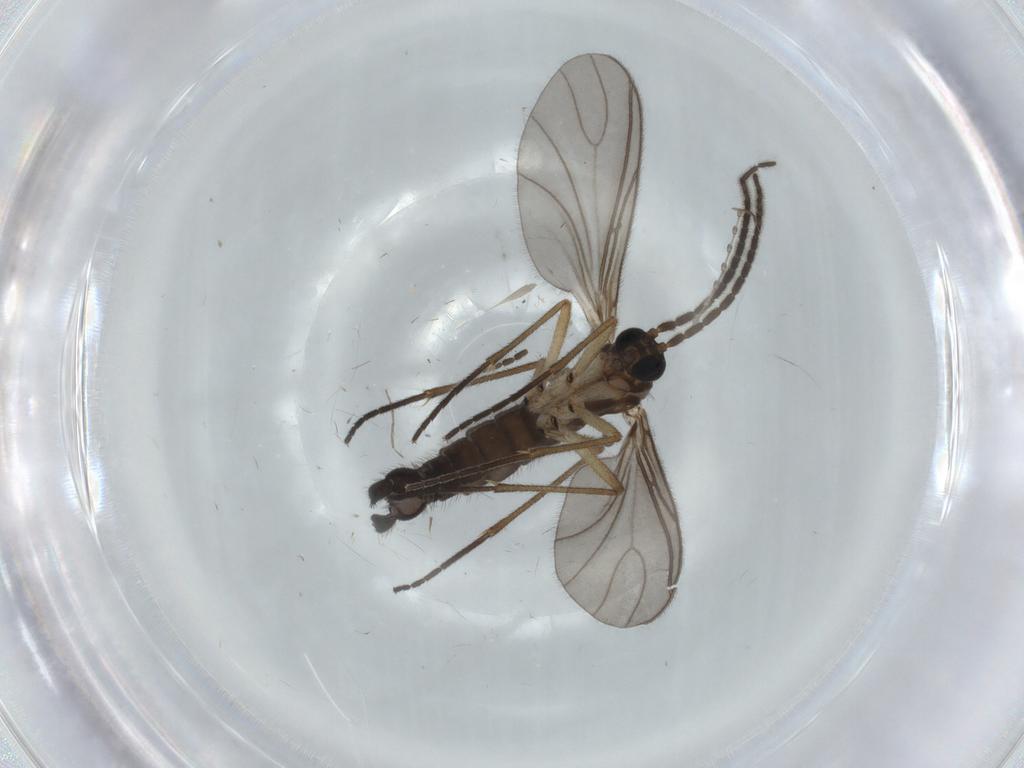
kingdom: Animalia
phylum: Arthropoda
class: Insecta
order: Diptera
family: Sciaridae
